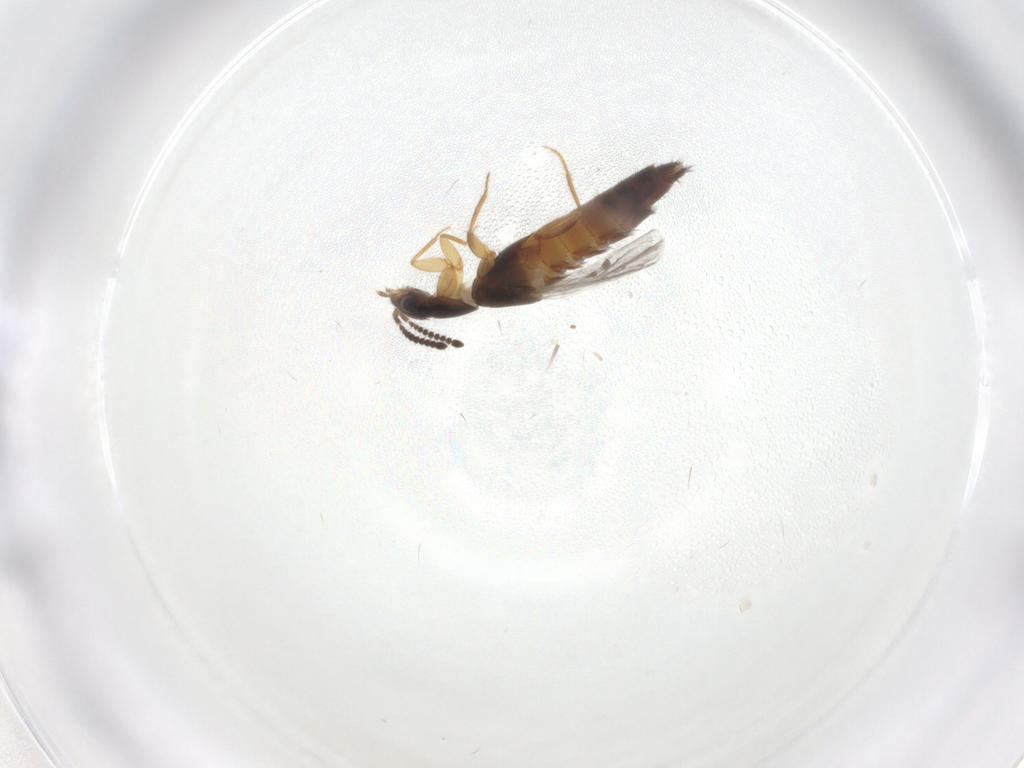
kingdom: Animalia
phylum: Arthropoda
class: Insecta
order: Coleoptera
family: Staphylinidae
